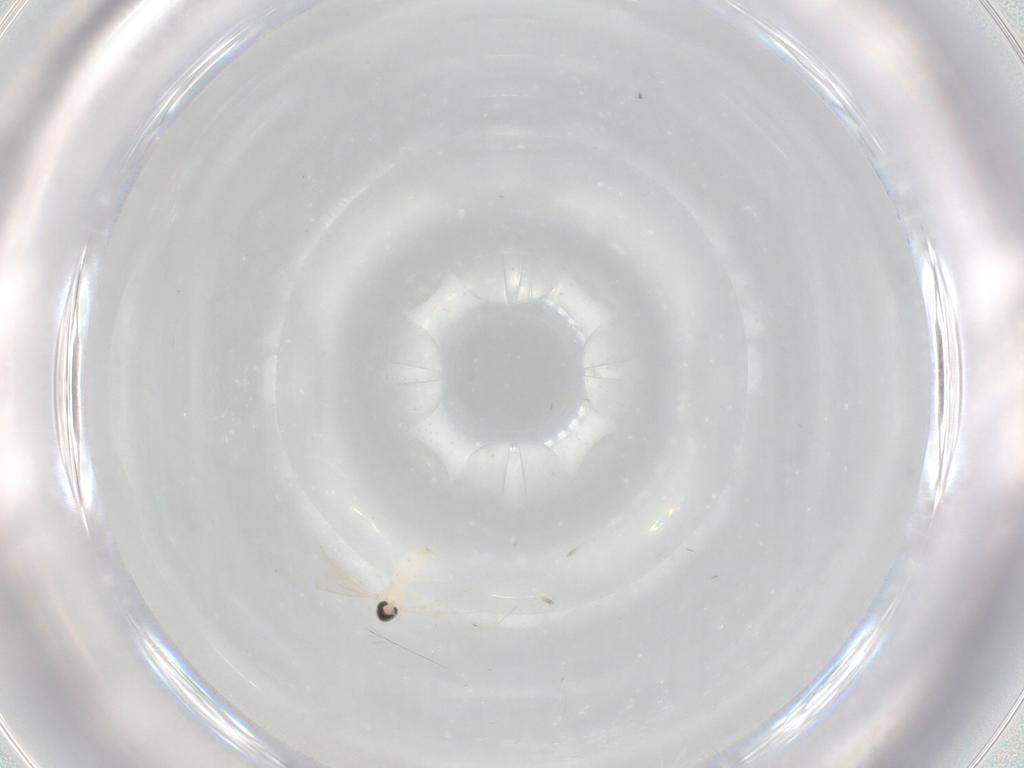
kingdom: Animalia
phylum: Arthropoda
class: Insecta
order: Diptera
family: Cecidomyiidae
